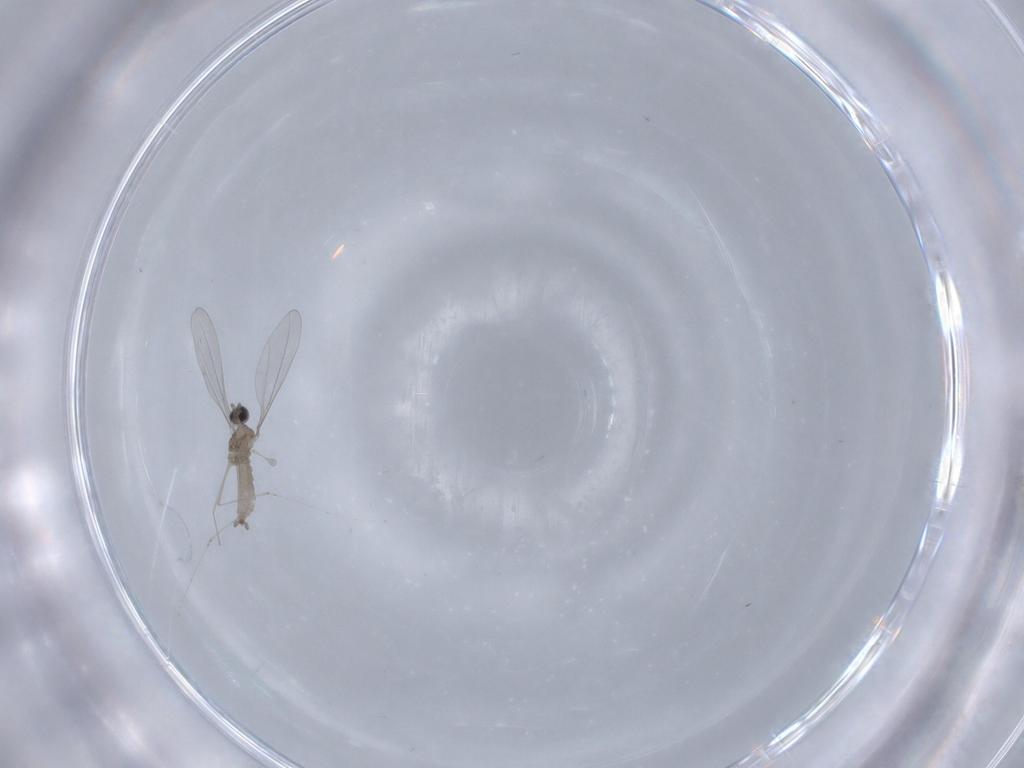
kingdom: Animalia
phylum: Arthropoda
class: Insecta
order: Diptera
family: Cecidomyiidae
